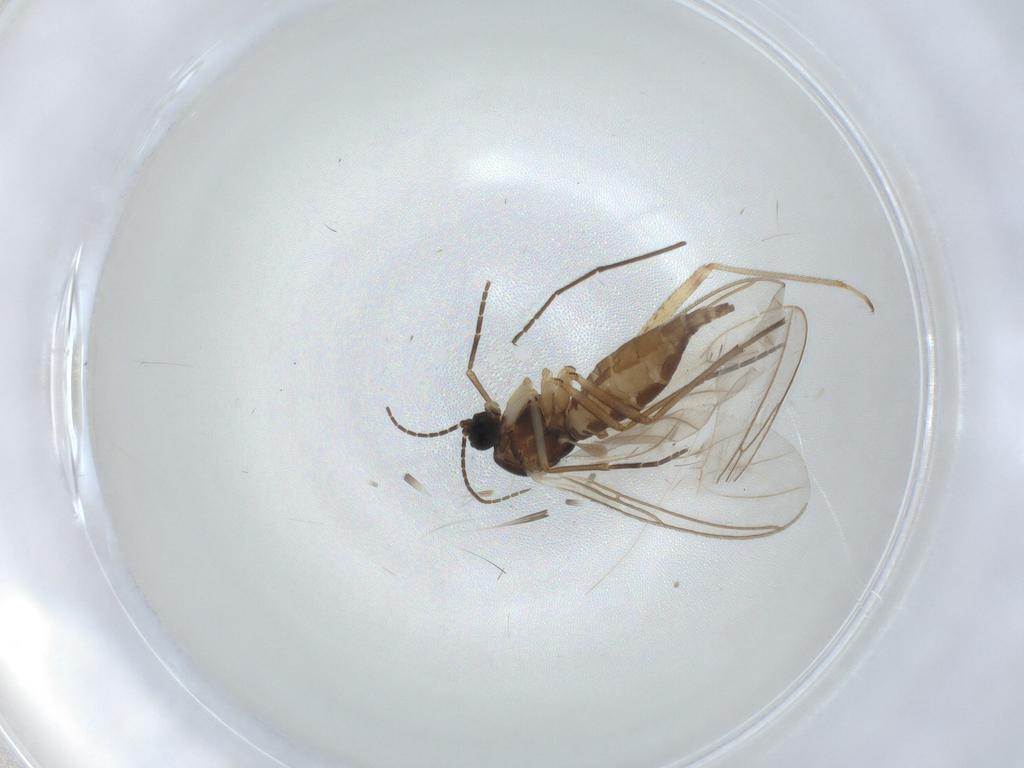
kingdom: Animalia
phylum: Arthropoda
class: Insecta
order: Diptera
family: Sciaridae
